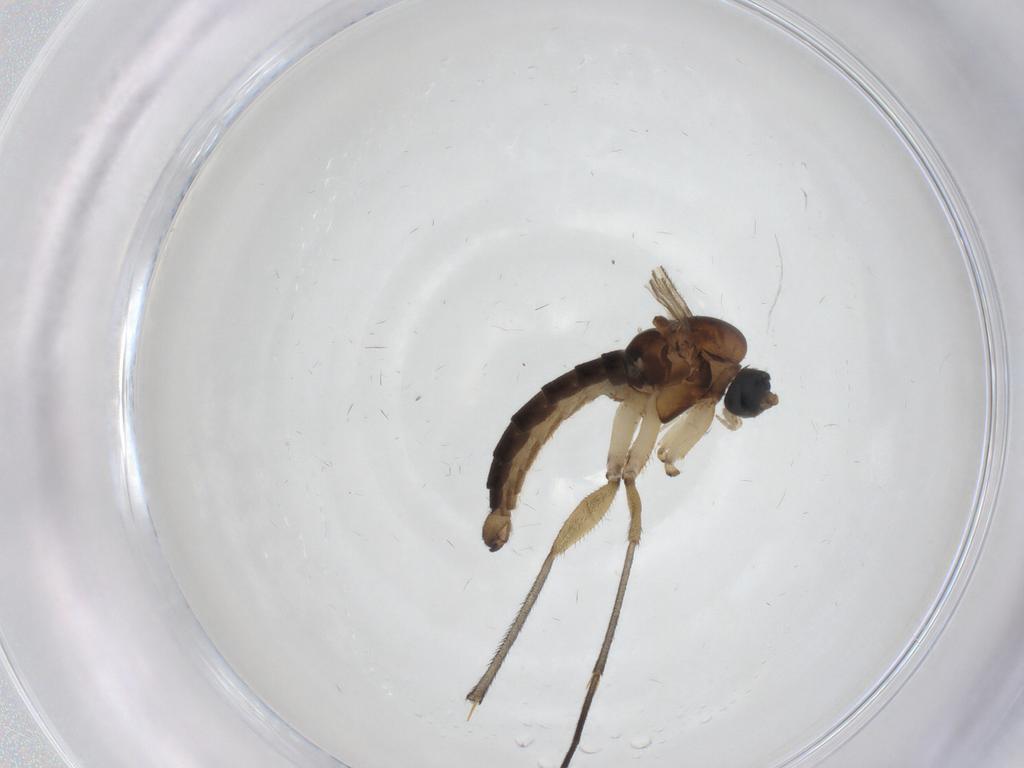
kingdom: Animalia
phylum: Arthropoda
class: Insecta
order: Diptera
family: Sciaridae
